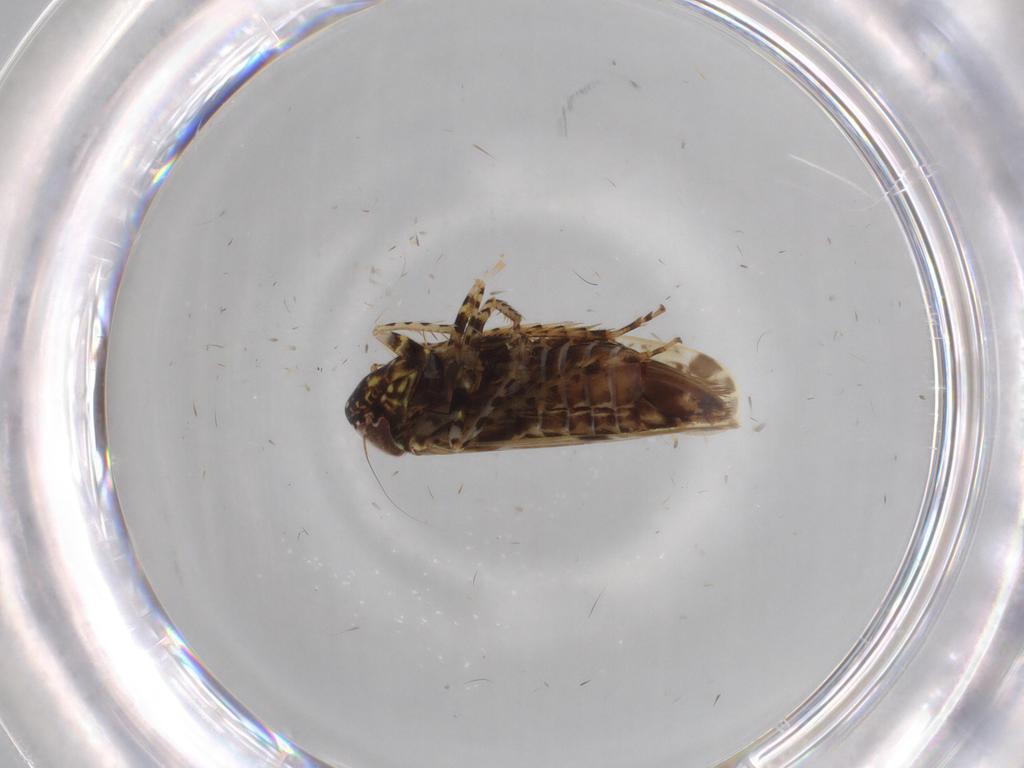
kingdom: Animalia
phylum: Arthropoda
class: Insecta
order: Hemiptera
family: Cicadellidae
